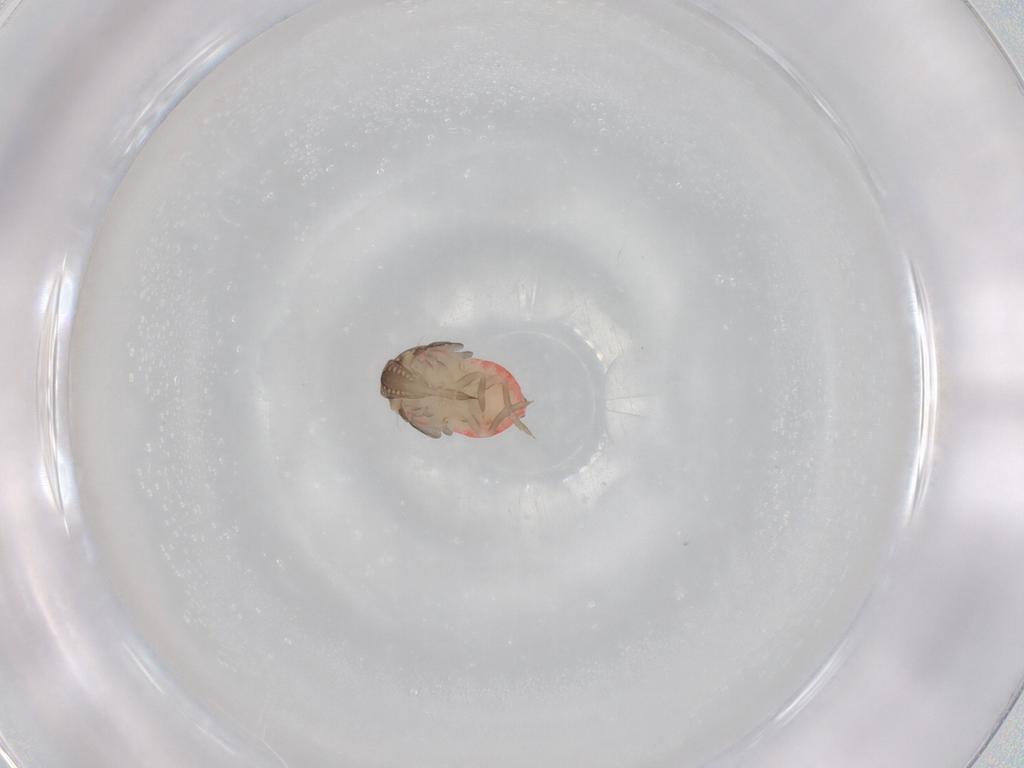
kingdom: Animalia
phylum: Arthropoda
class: Insecta
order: Hemiptera
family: Derbidae
